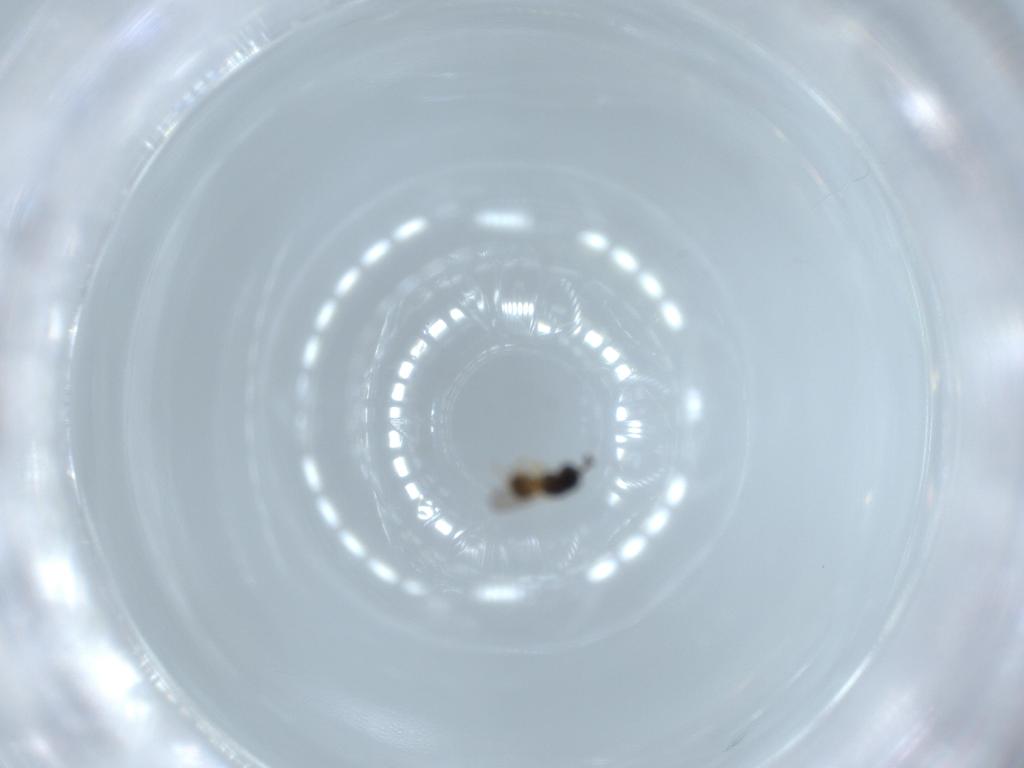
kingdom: Animalia
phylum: Arthropoda
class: Insecta
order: Hymenoptera
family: Scelionidae
